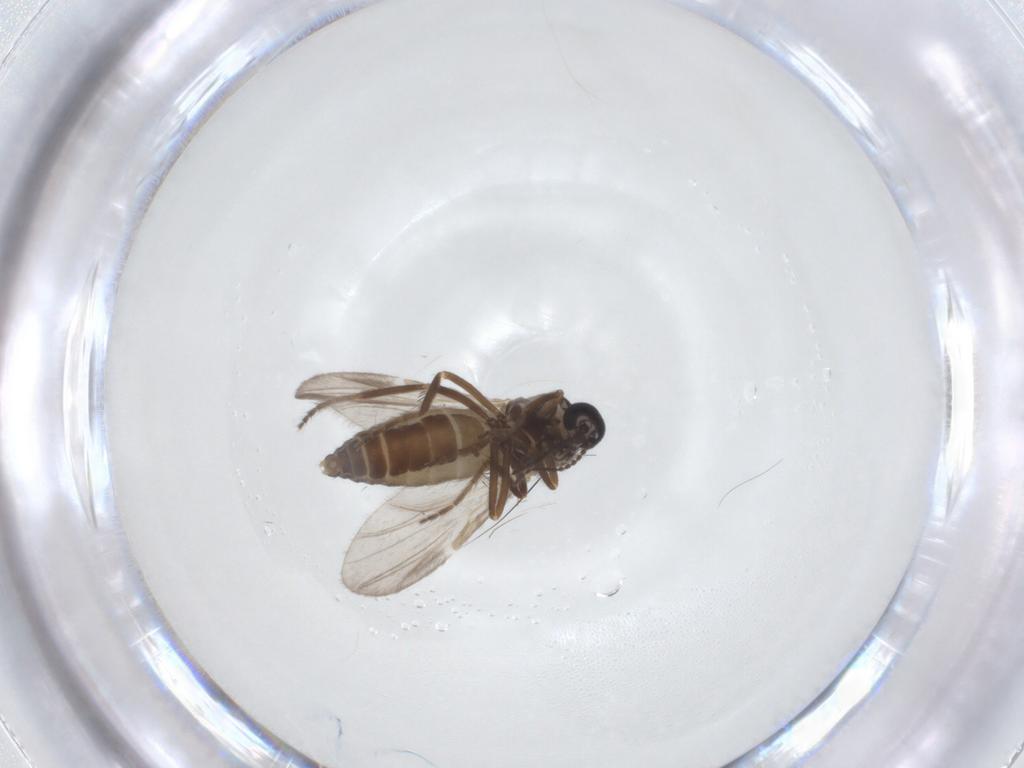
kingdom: Animalia
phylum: Arthropoda
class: Insecta
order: Diptera
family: Ceratopogonidae
